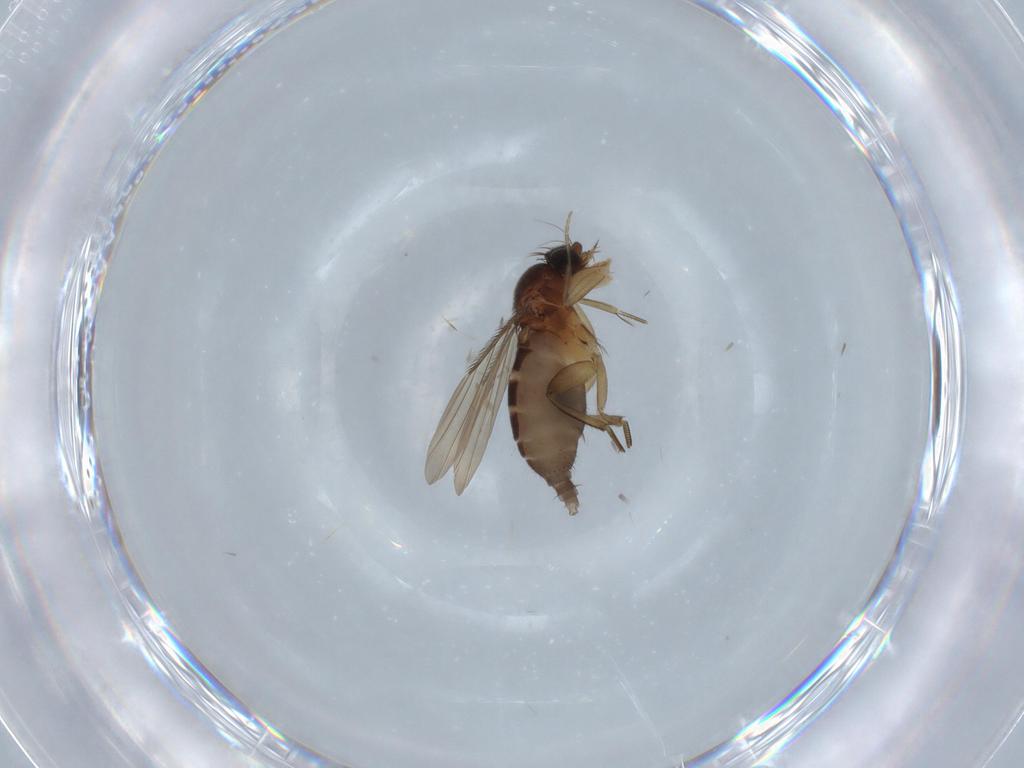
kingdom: Animalia
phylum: Arthropoda
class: Insecta
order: Diptera
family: Phoridae
